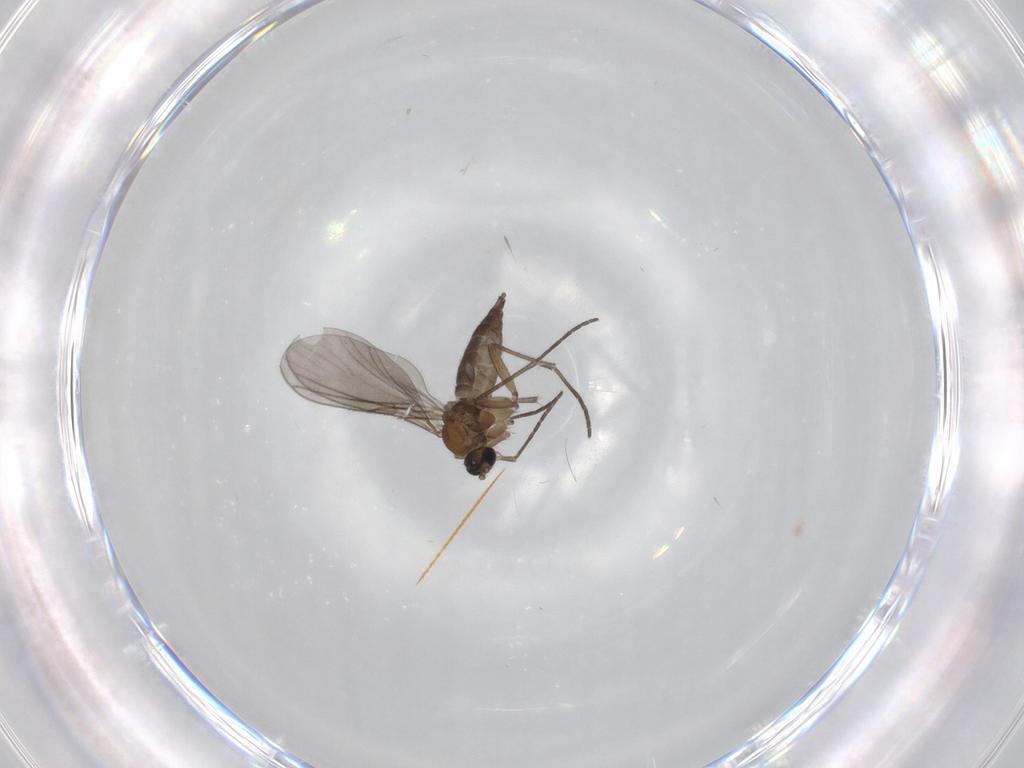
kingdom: Animalia
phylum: Arthropoda
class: Insecta
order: Diptera
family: Sciaridae
